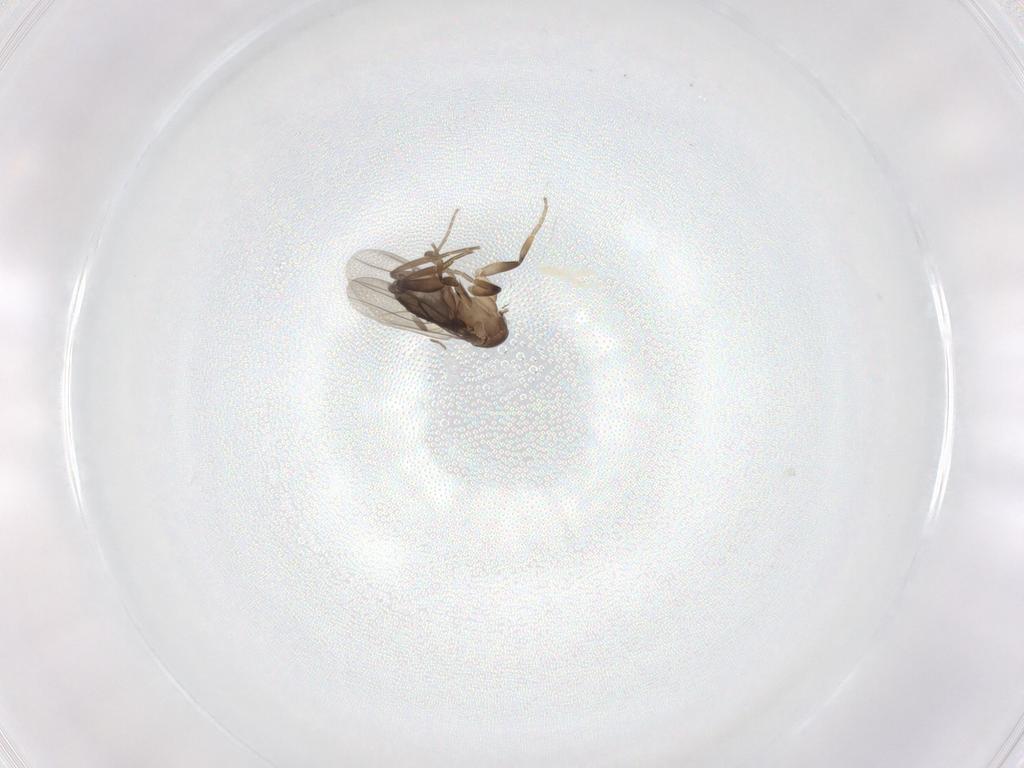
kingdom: Animalia
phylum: Arthropoda
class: Insecta
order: Diptera
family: Phoridae
